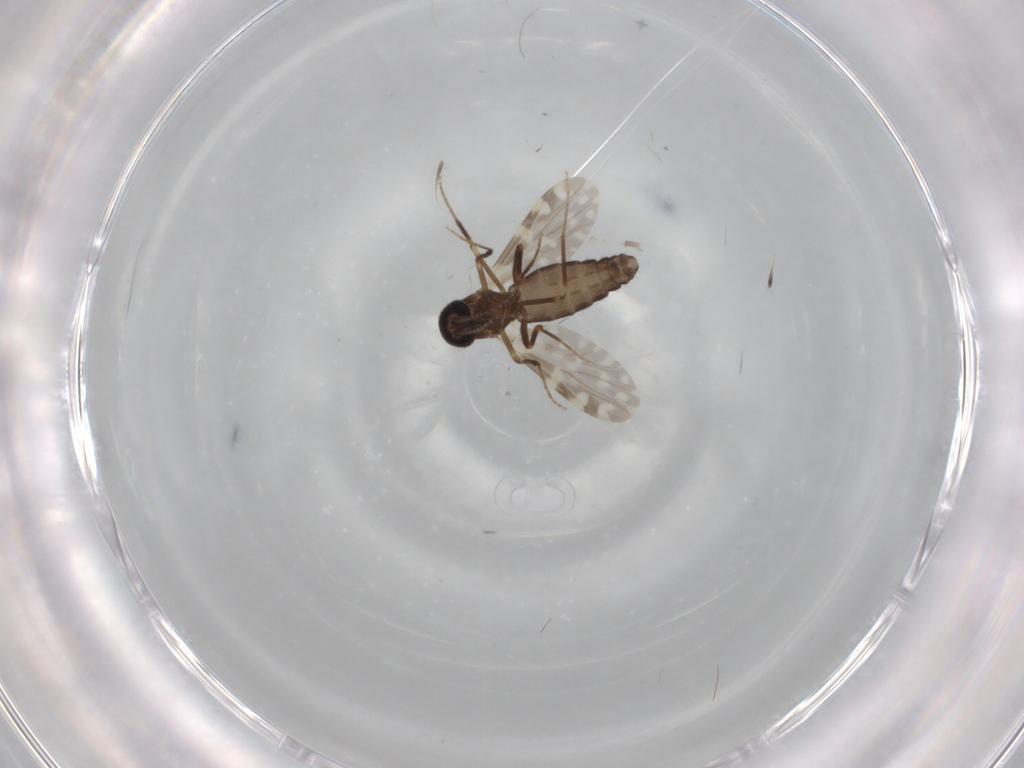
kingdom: Animalia
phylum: Arthropoda
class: Insecta
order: Diptera
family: Ceratopogonidae
